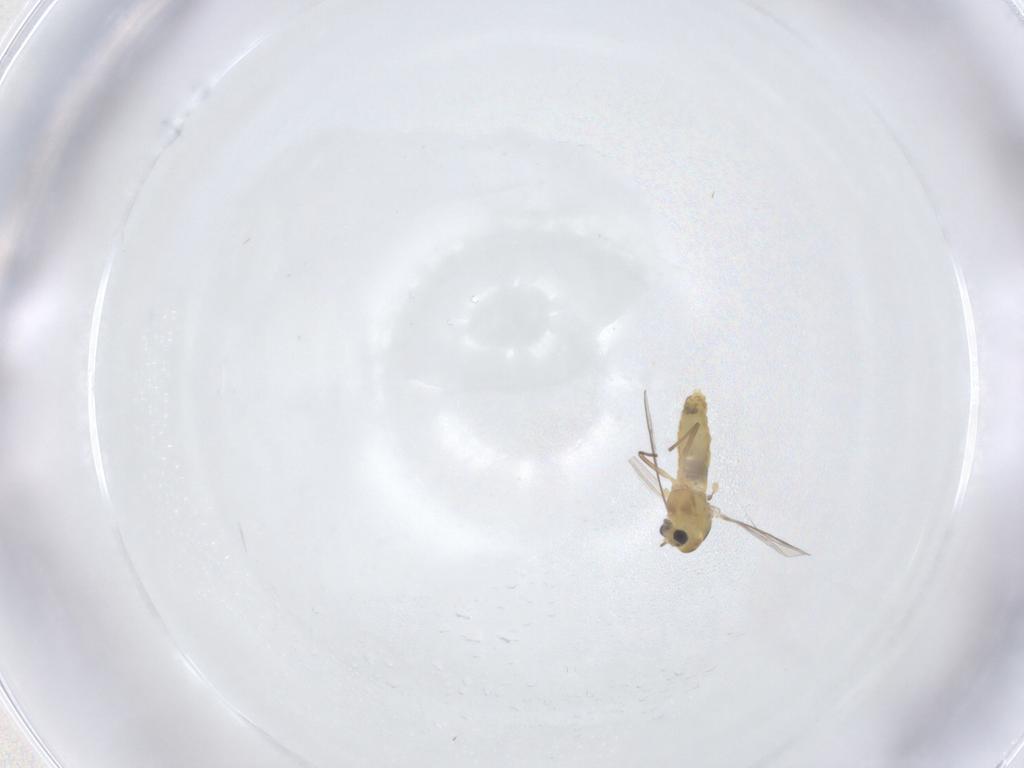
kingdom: Animalia
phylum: Arthropoda
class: Insecta
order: Diptera
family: Chironomidae
